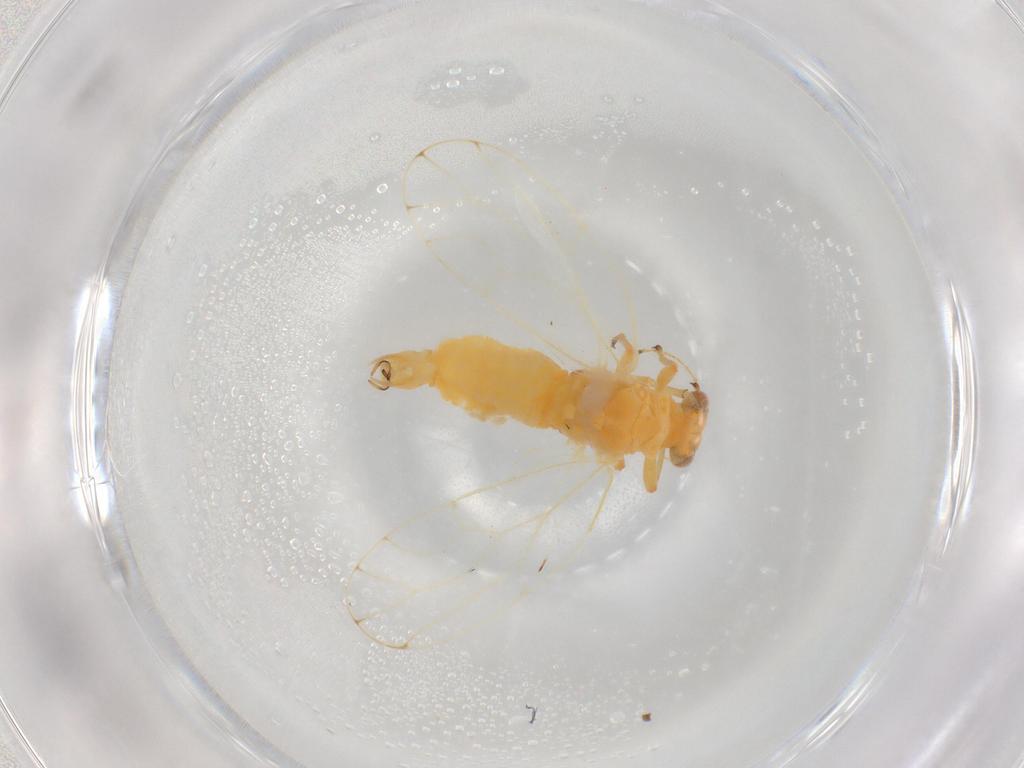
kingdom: Animalia
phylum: Arthropoda
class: Insecta
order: Hemiptera
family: Aphalaridae
